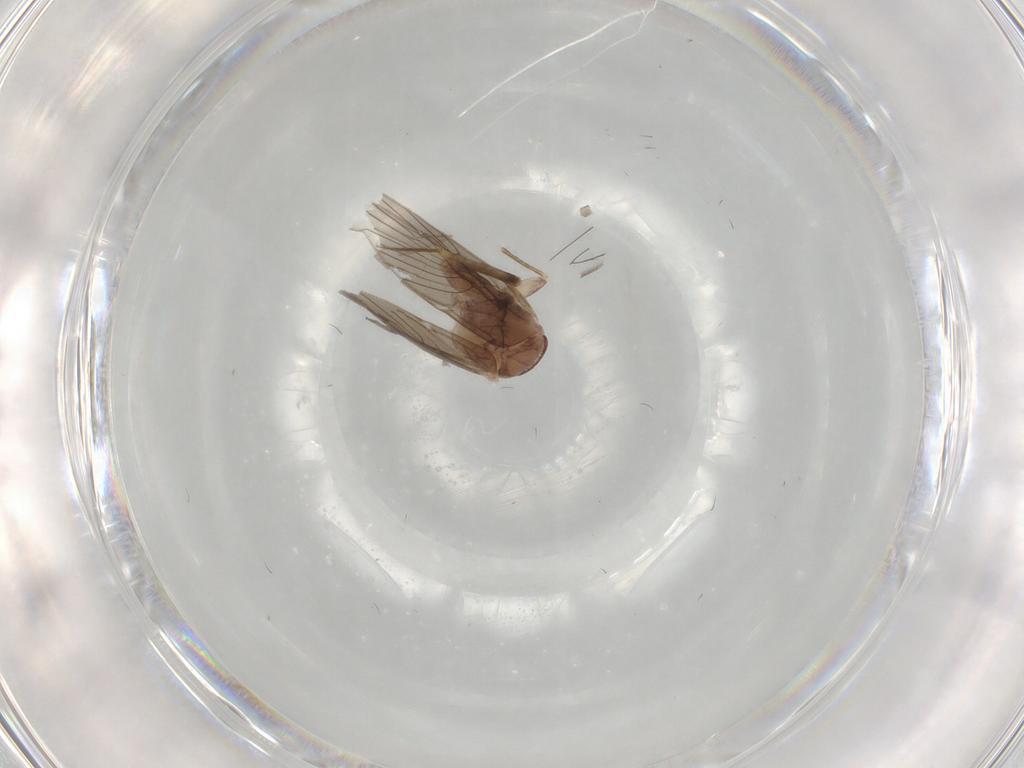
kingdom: Animalia
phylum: Arthropoda
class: Insecta
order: Psocodea
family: Lepidopsocidae
